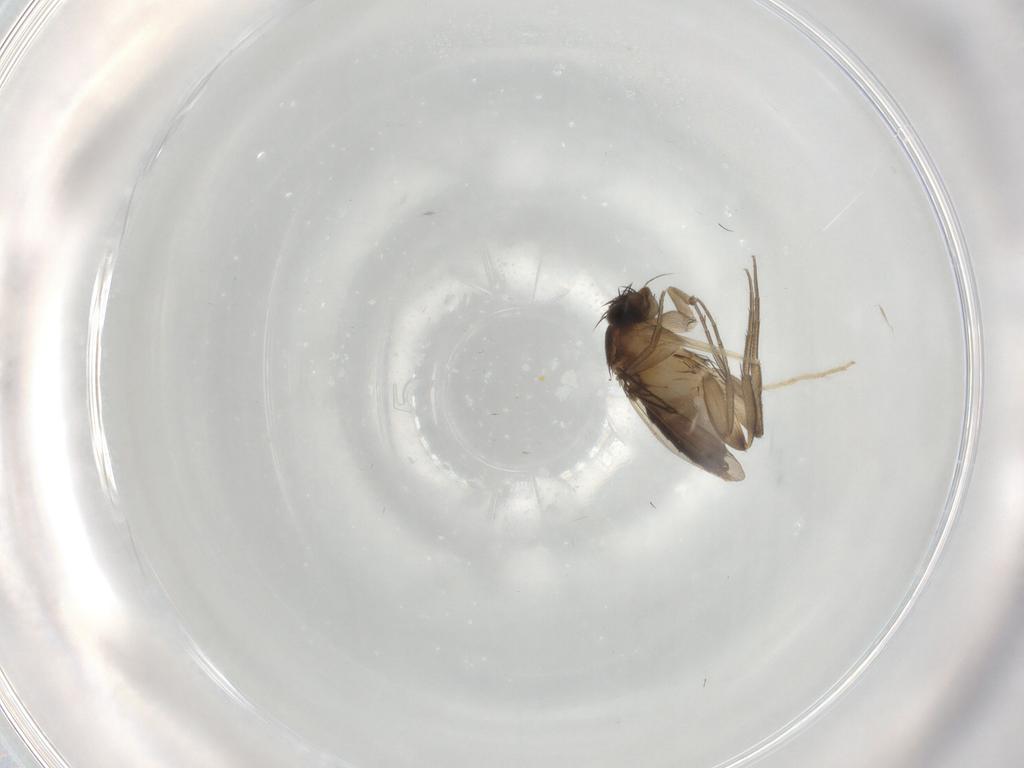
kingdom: Animalia
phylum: Arthropoda
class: Insecta
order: Diptera
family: Phoridae
